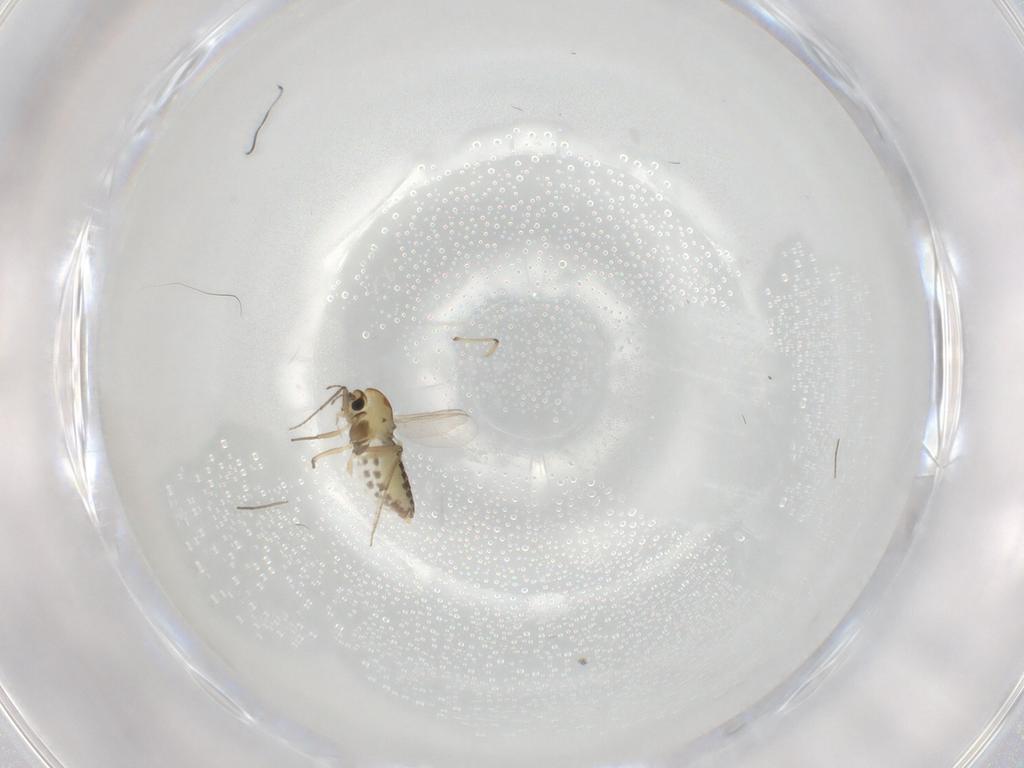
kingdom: Animalia
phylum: Arthropoda
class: Insecta
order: Diptera
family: Chironomidae
